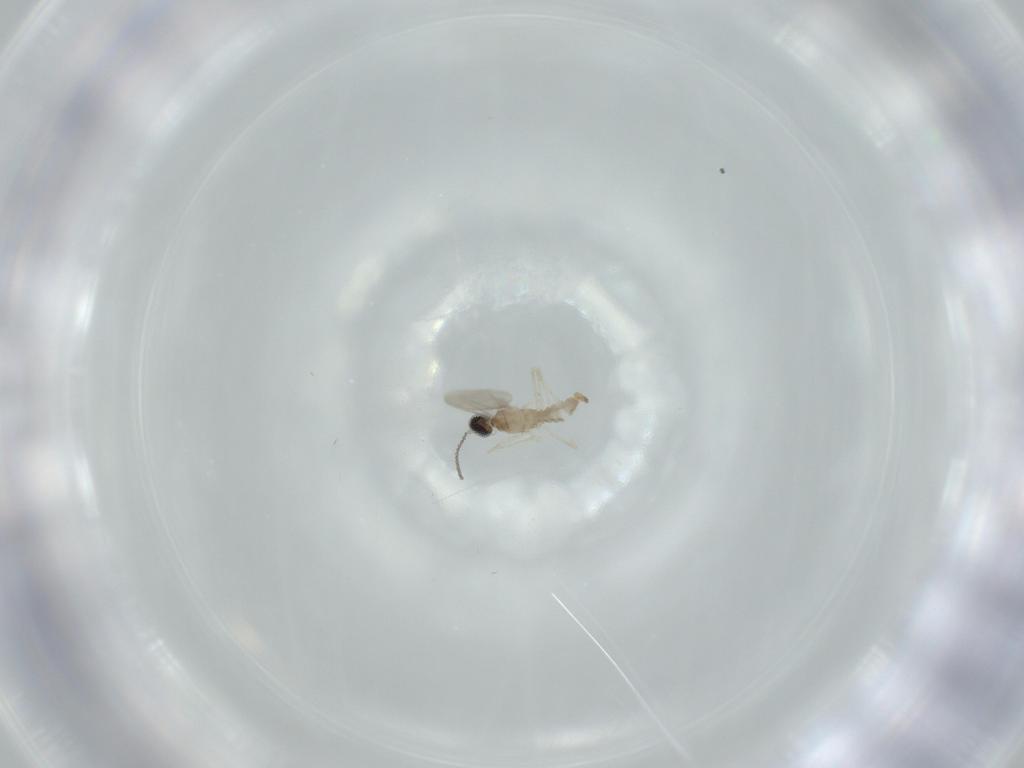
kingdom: Animalia
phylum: Arthropoda
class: Insecta
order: Diptera
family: Cecidomyiidae
